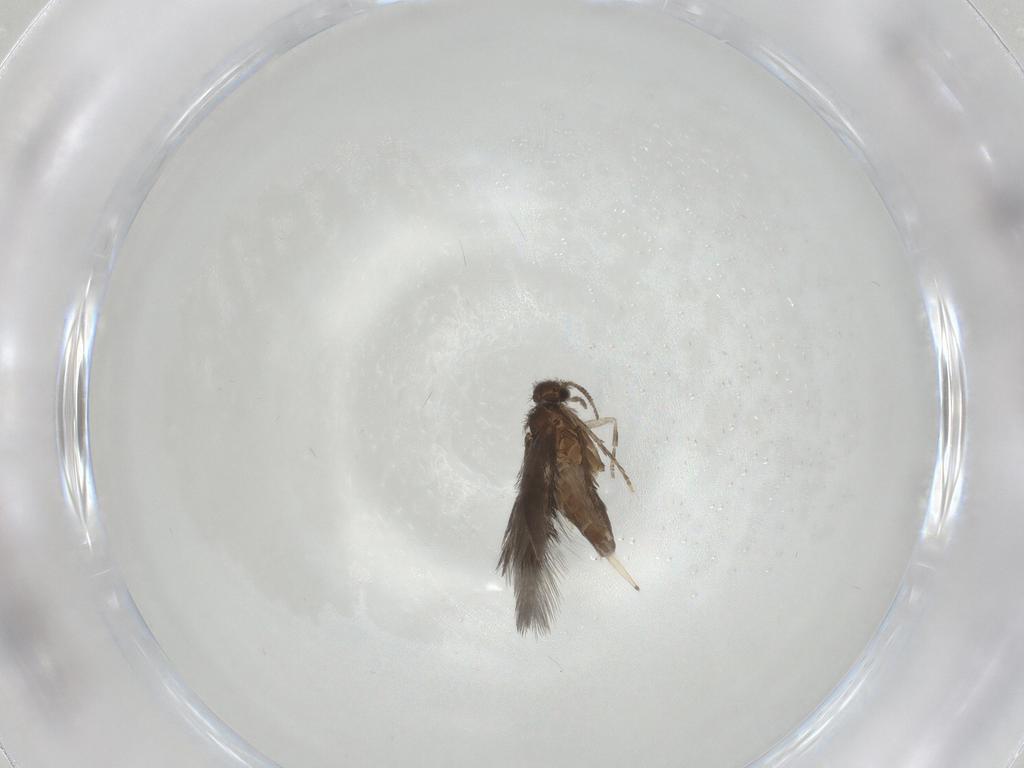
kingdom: Animalia
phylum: Arthropoda
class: Insecta
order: Trichoptera
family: Hydroptilidae
